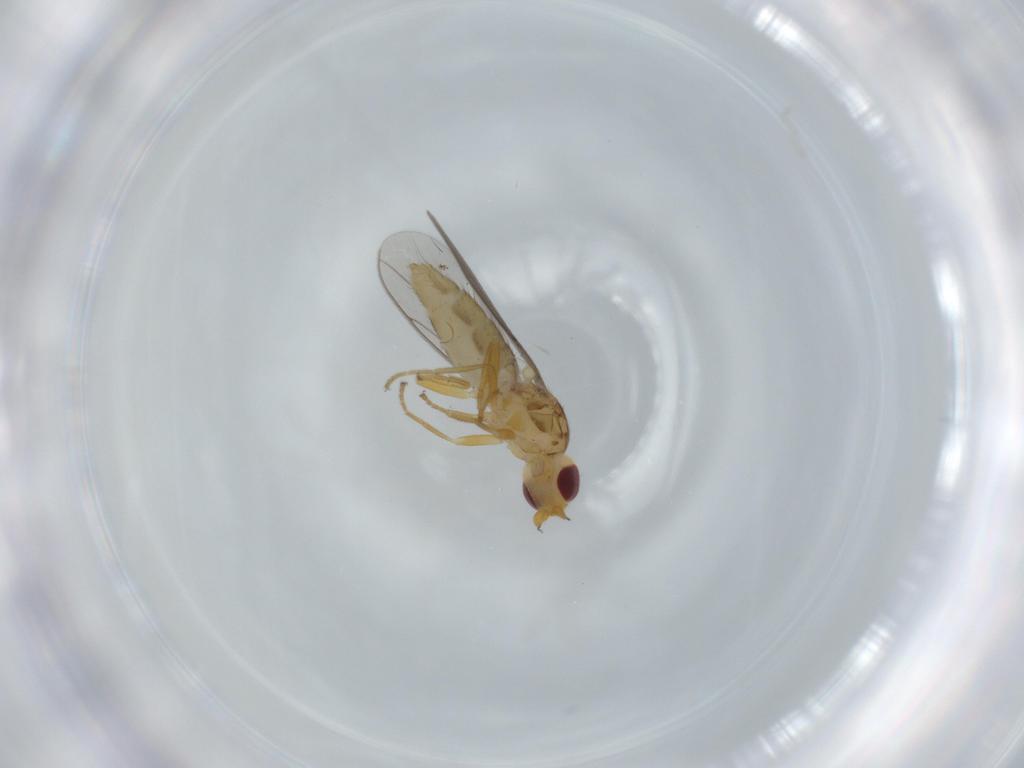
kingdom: Animalia
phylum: Arthropoda
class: Insecta
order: Diptera
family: Chloropidae
